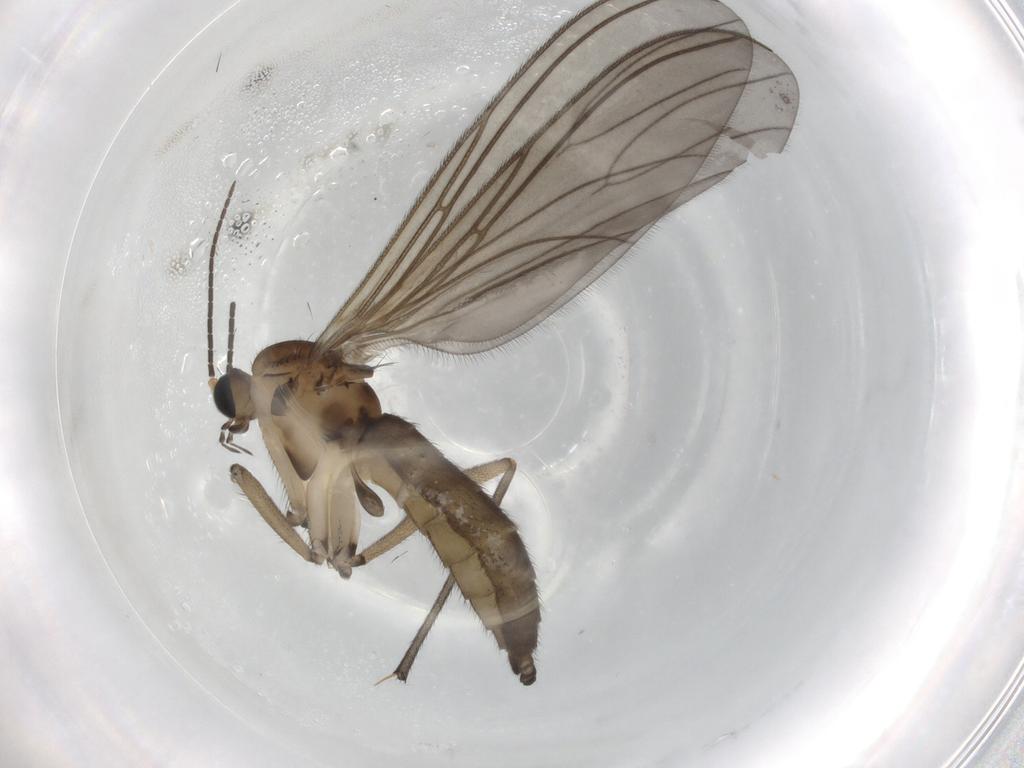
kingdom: Animalia
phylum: Arthropoda
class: Insecta
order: Diptera
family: Sciaridae
